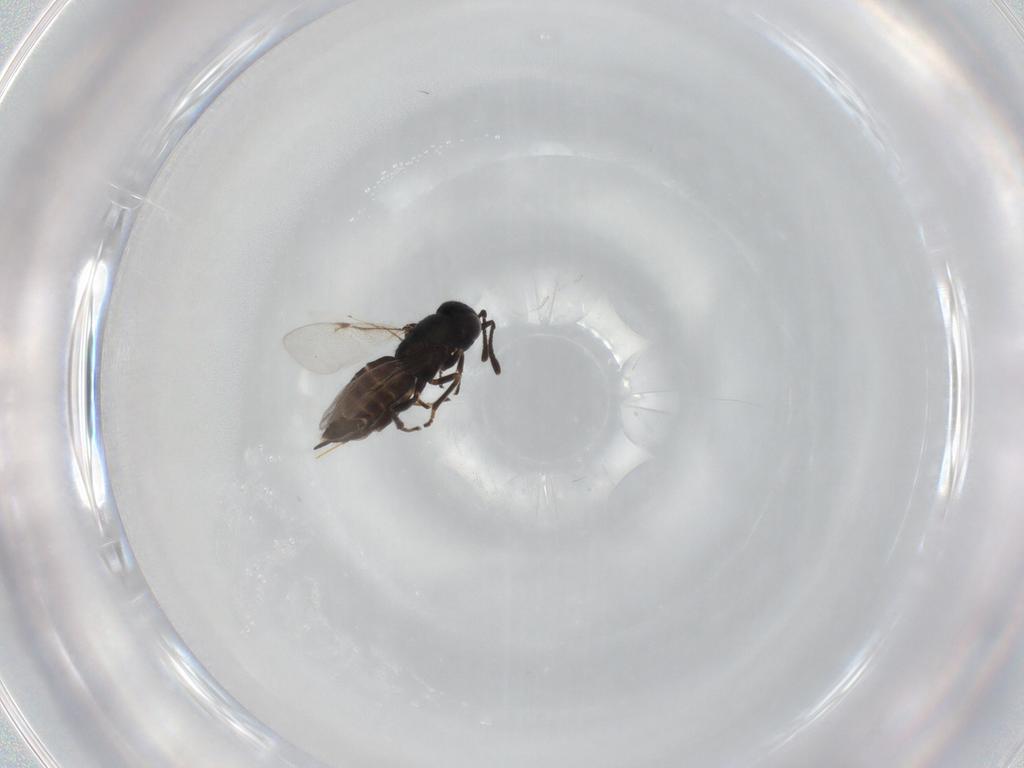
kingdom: Animalia
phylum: Arthropoda
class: Insecta
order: Hymenoptera
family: Encyrtidae
